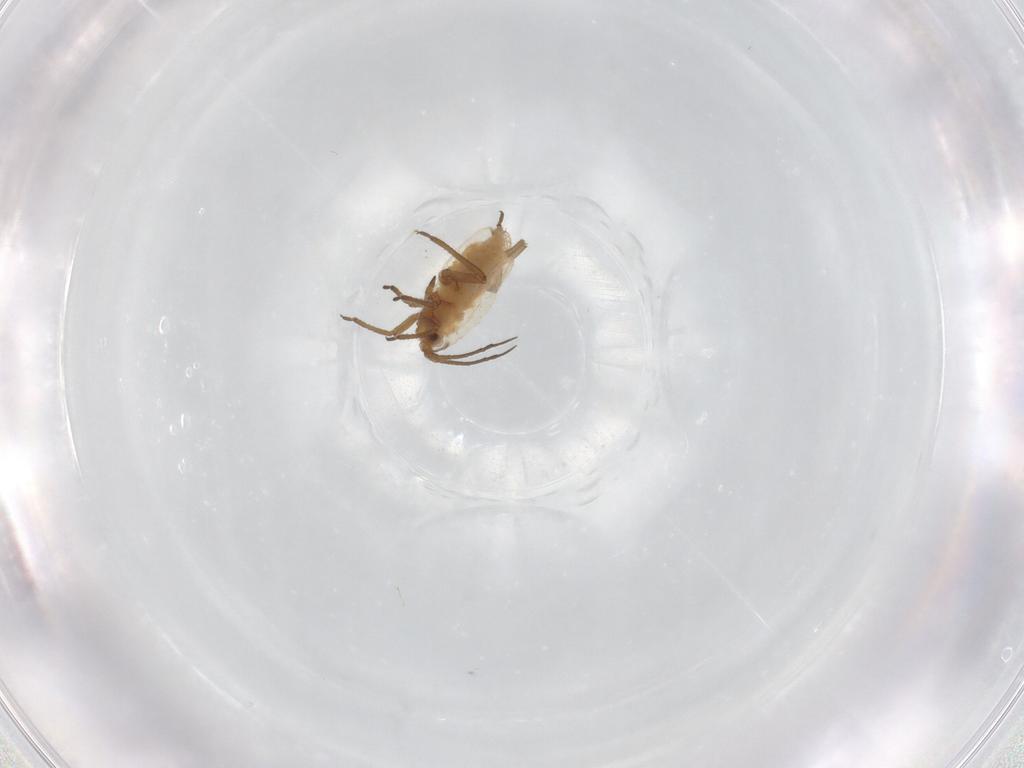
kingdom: Animalia
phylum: Arthropoda
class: Insecta
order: Hemiptera
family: Aphididae
